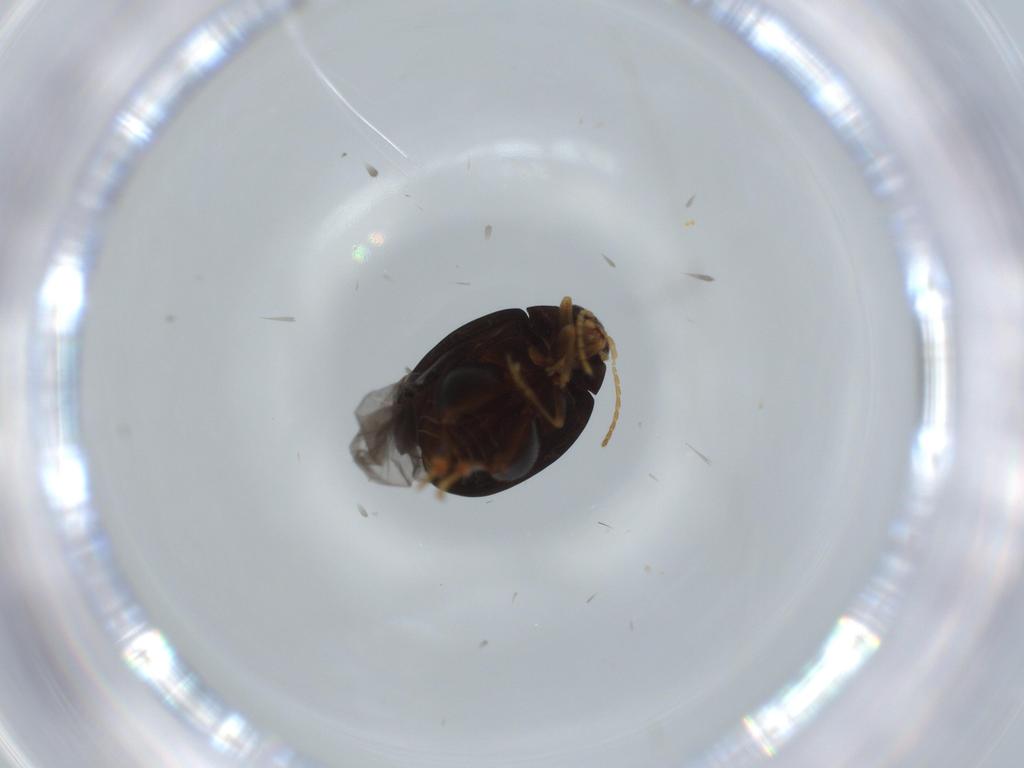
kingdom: Animalia
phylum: Arthropoda
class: Insecta
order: Coleoptera
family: Chrysomelidae
